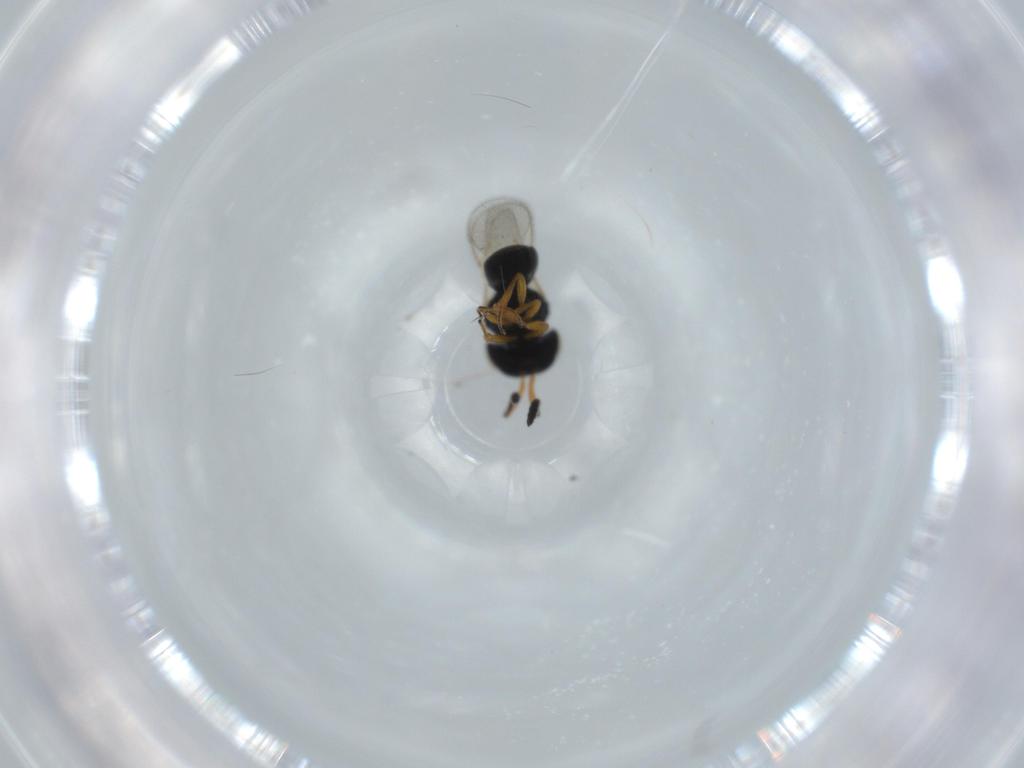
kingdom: Animalia
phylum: Arthropoda
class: Insecta
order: Hymenoptera
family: Scelionidae
